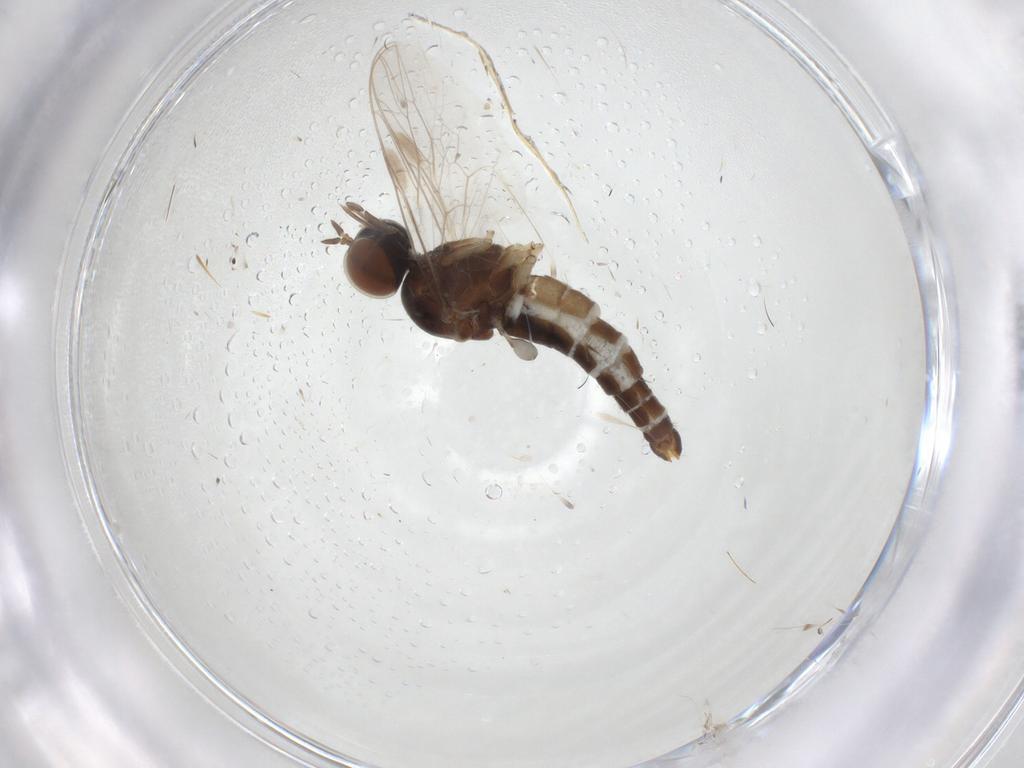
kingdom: Animalia
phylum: Arthropoda
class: Insecta
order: Diptera
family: Scenopinidae
